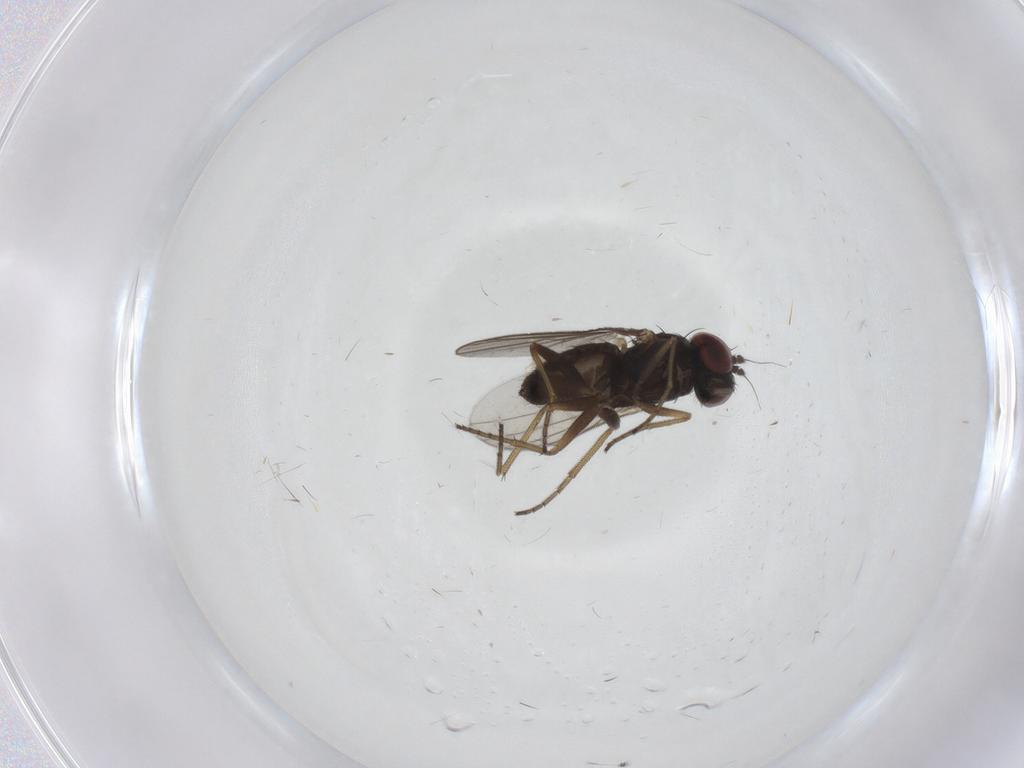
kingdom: Animalia
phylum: Arthropoda
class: Insecta
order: Diptera
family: Dolichopodidae
